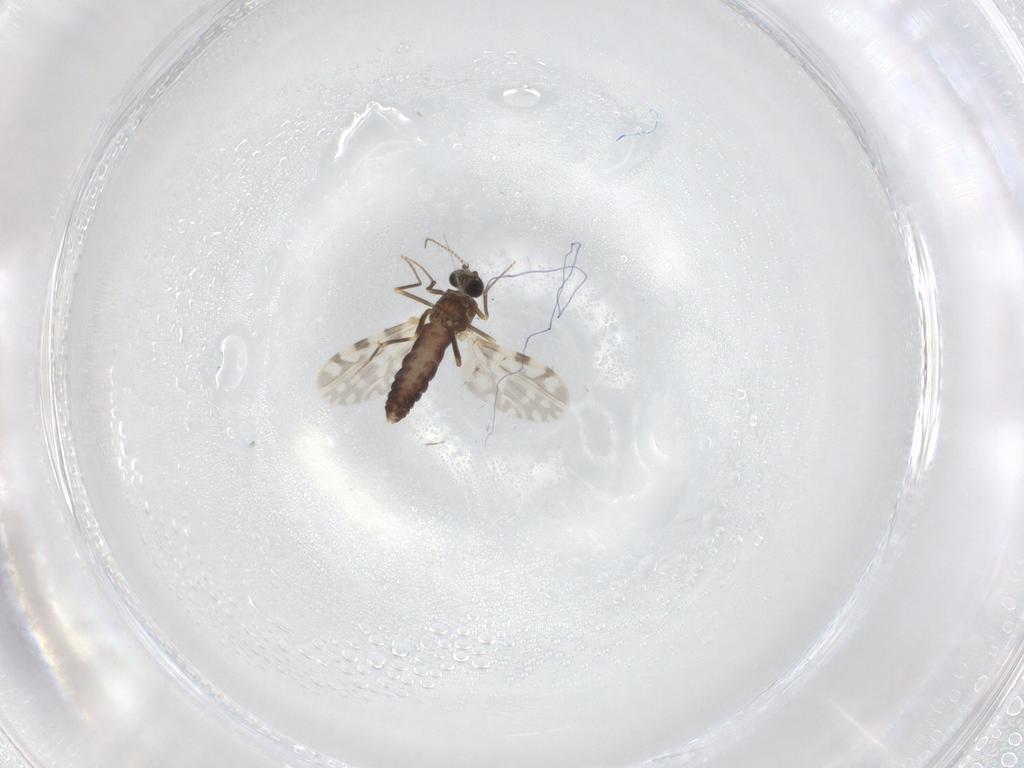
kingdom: Animalia
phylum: Arthropoda
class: Insecta
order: Diptera
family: Ceratopogonidae
